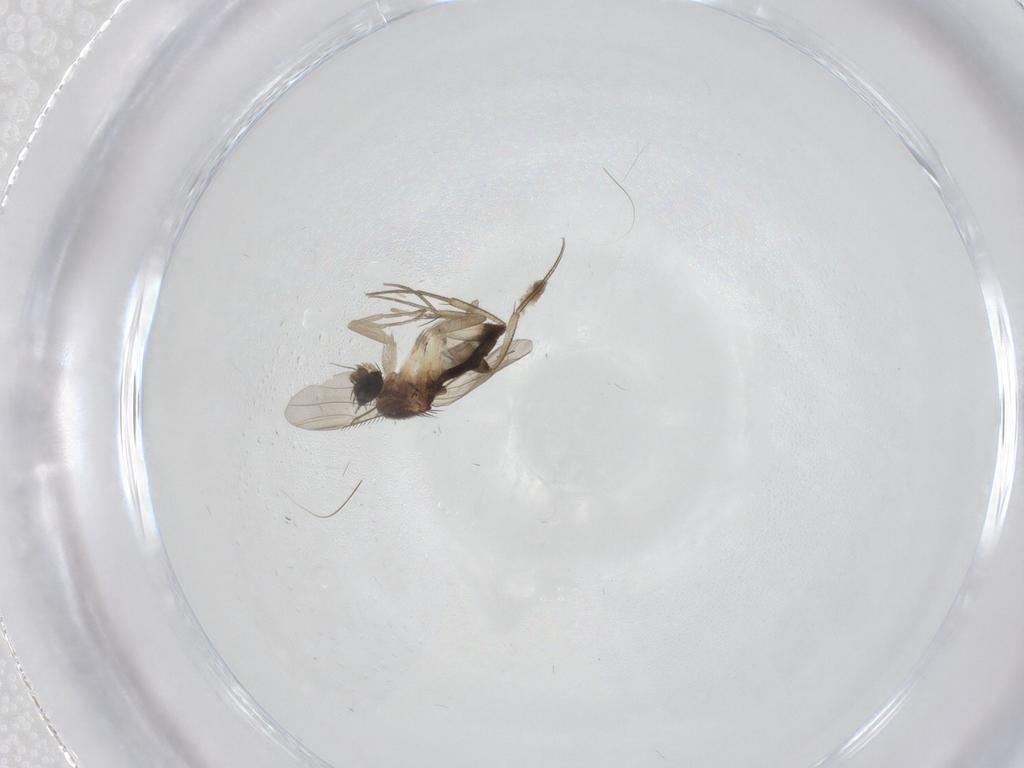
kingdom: Animalia
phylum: Arthropoda
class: Insecta
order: Diptera
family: Phoridae
